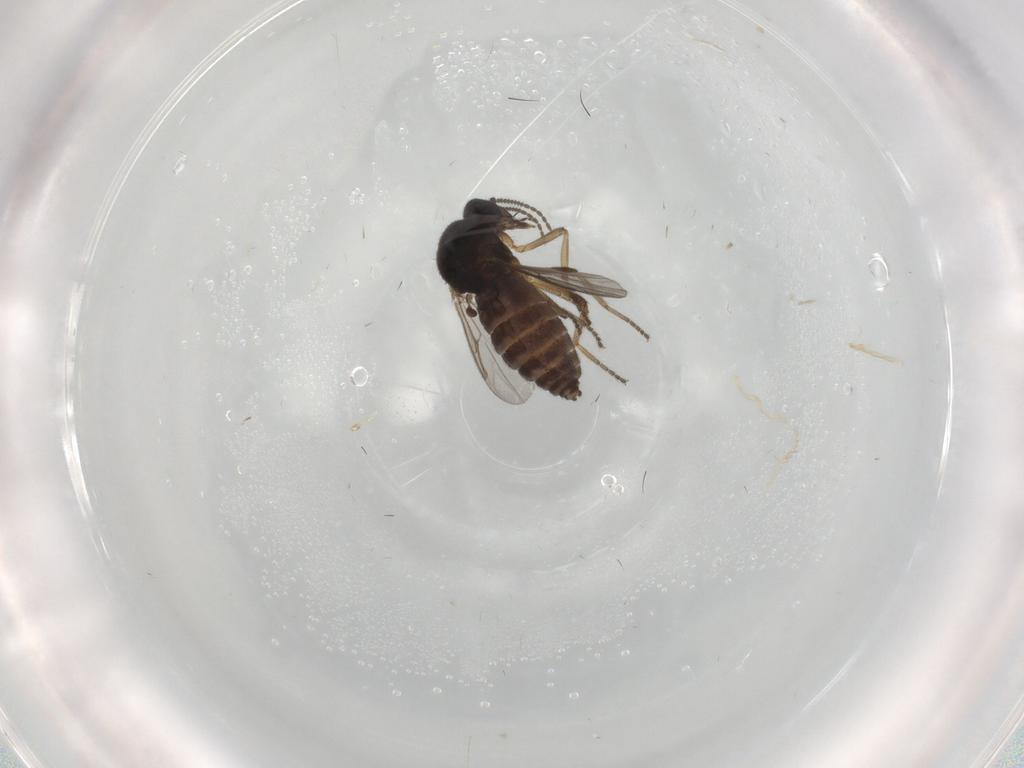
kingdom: Animalia
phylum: Arthropoda
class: Insecta
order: Diptera
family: Ceratopogonidae
